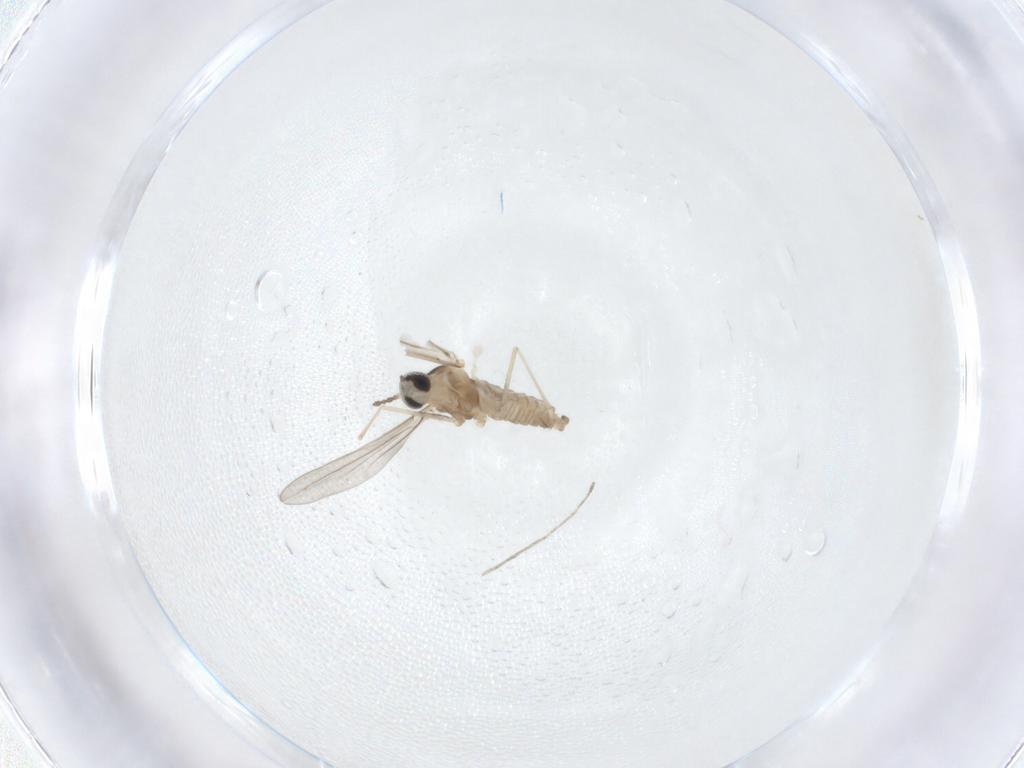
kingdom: Animalia
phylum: Arthropoda
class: Insecta
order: Diptera
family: Cecidomyiidae
